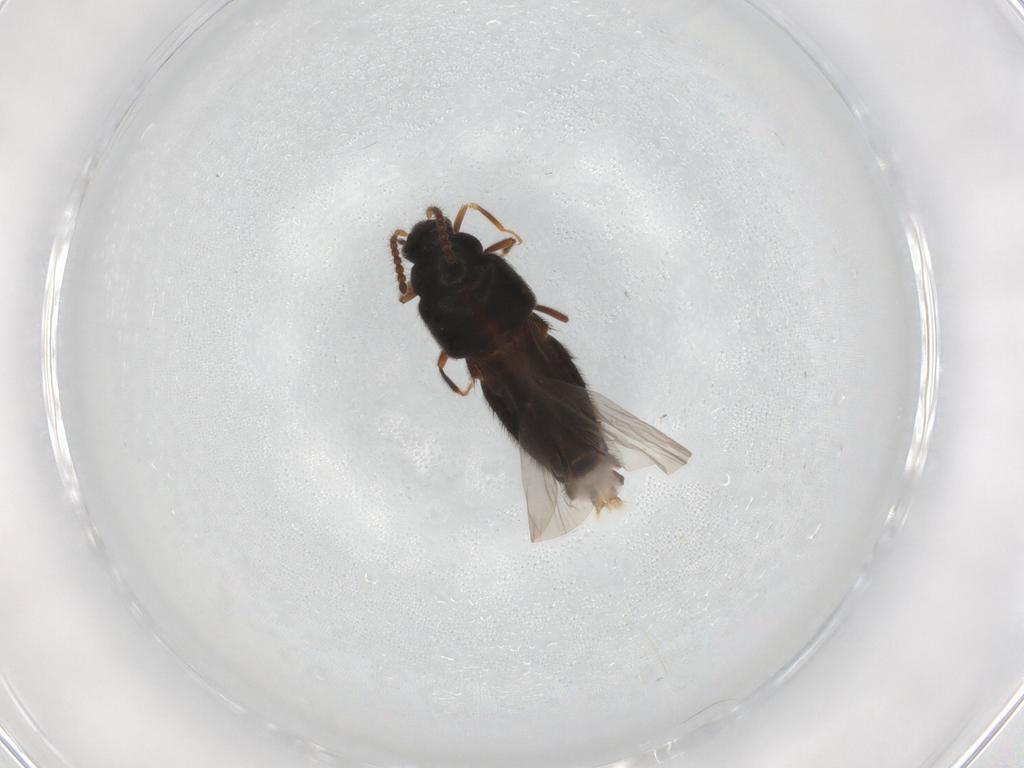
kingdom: Animalia
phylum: Arthropoda
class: Insecta
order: Coleoptera
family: Staphylinidae
